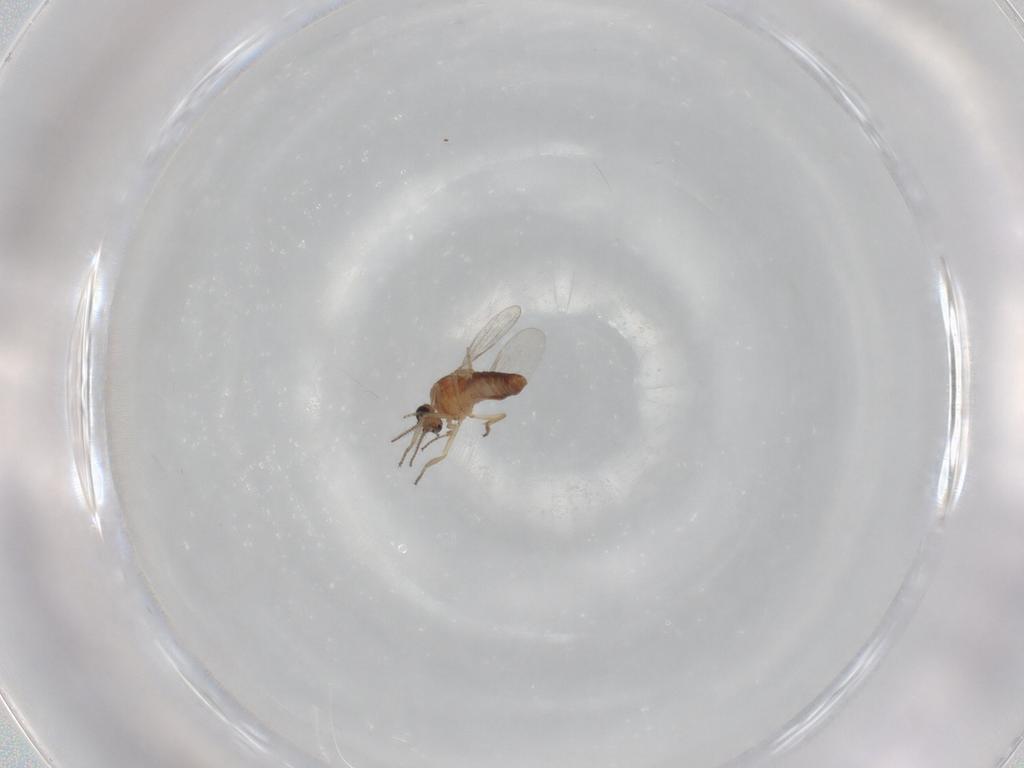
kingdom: Animalia
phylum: Arthropoda
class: Insecta
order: Diptera
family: Ceratopogonidae
